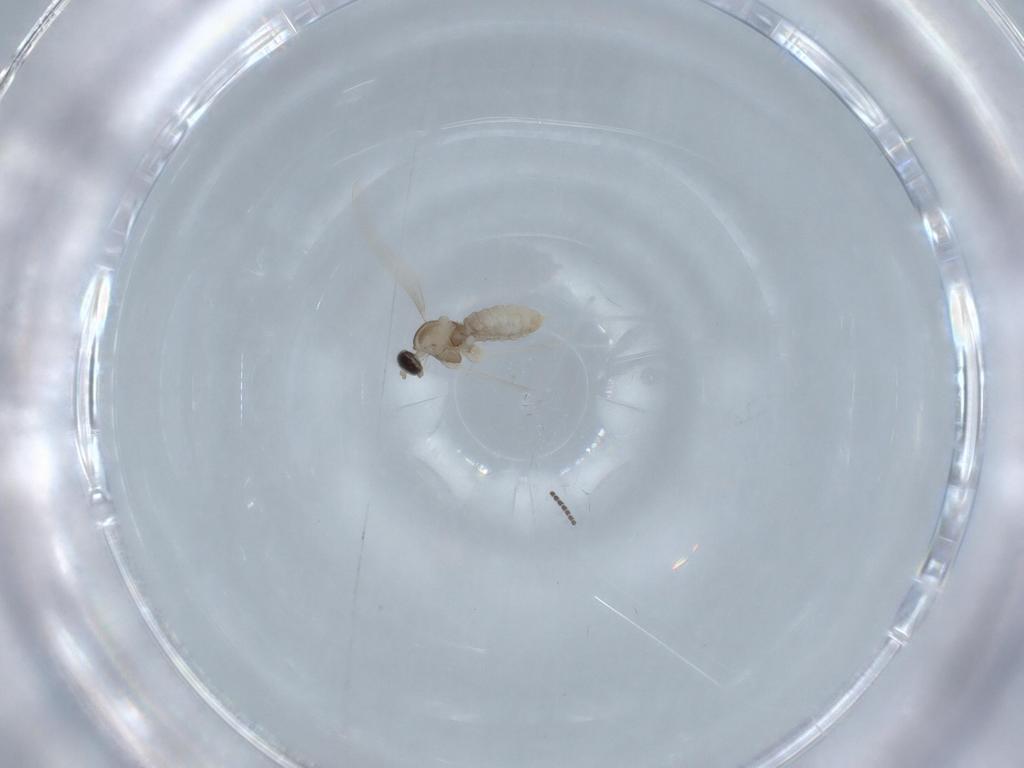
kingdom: Animalia
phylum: Arthropoda
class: Insecta
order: Diptera
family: Cecidomyiidae
